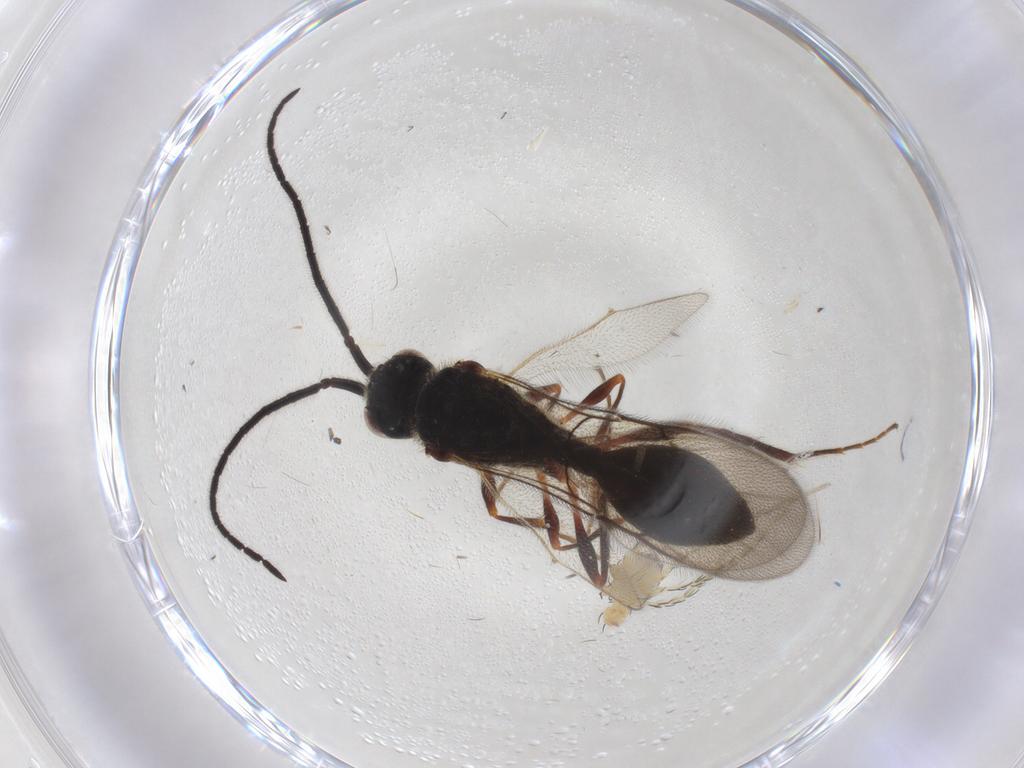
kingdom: Animalia
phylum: Arthropoda
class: Insecta
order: Hymenoptera
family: Diapriidae
